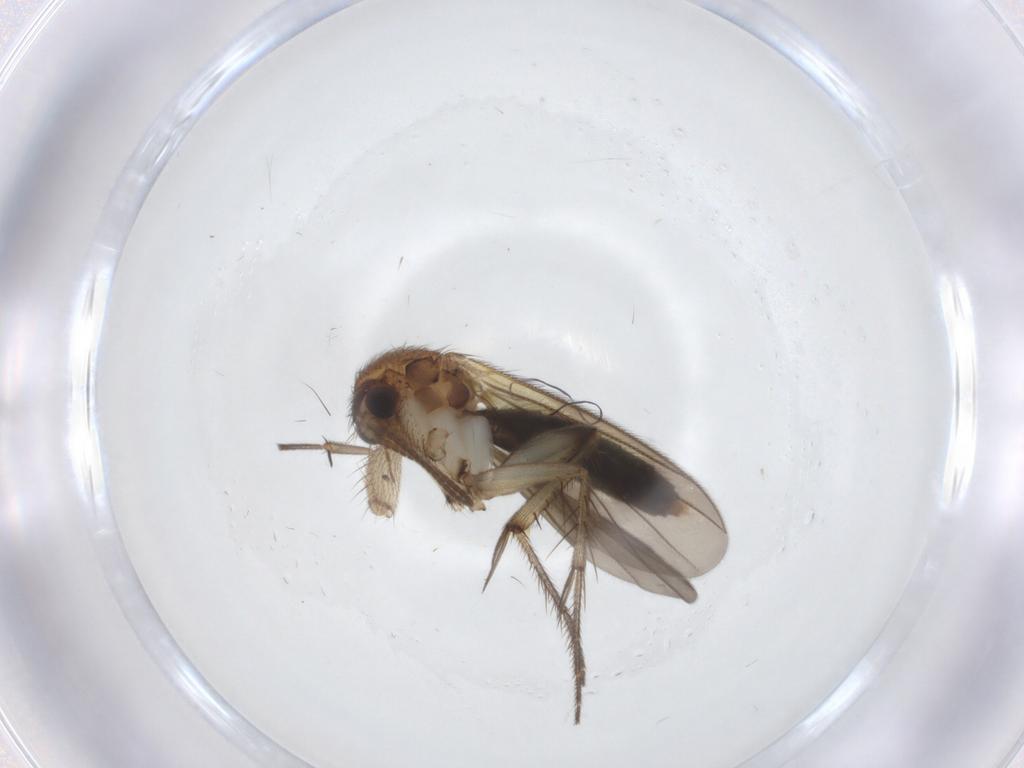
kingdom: Animalia
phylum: Arthropoda
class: Insecta
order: Diptera
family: Mycetophilidae
